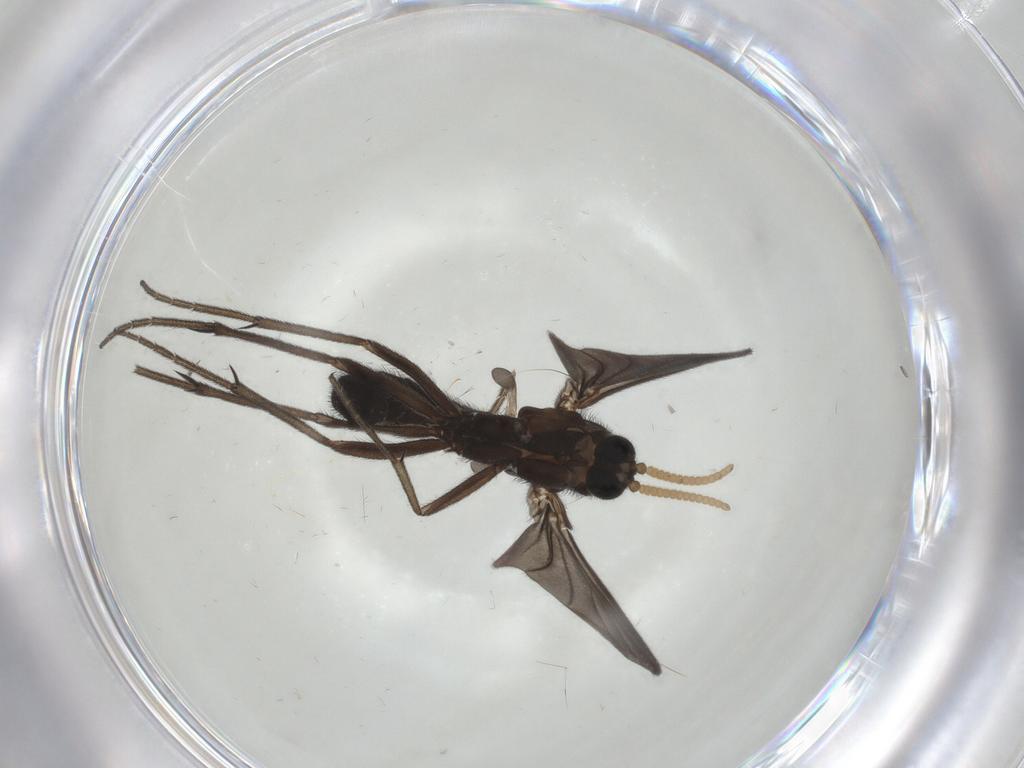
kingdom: Animalia
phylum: Arthropoda
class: Insecta
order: Diptera
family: Cecidomyiidae
